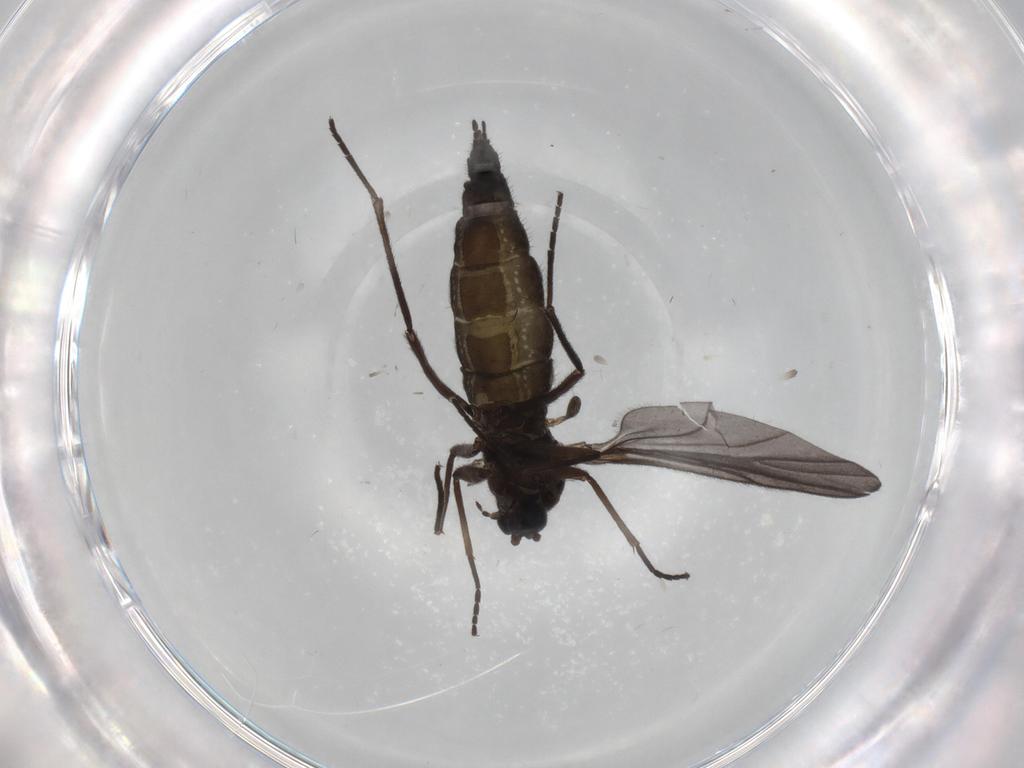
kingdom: Animalia
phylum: Arthropoda
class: Insecta
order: Diptera
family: Sciaridae
